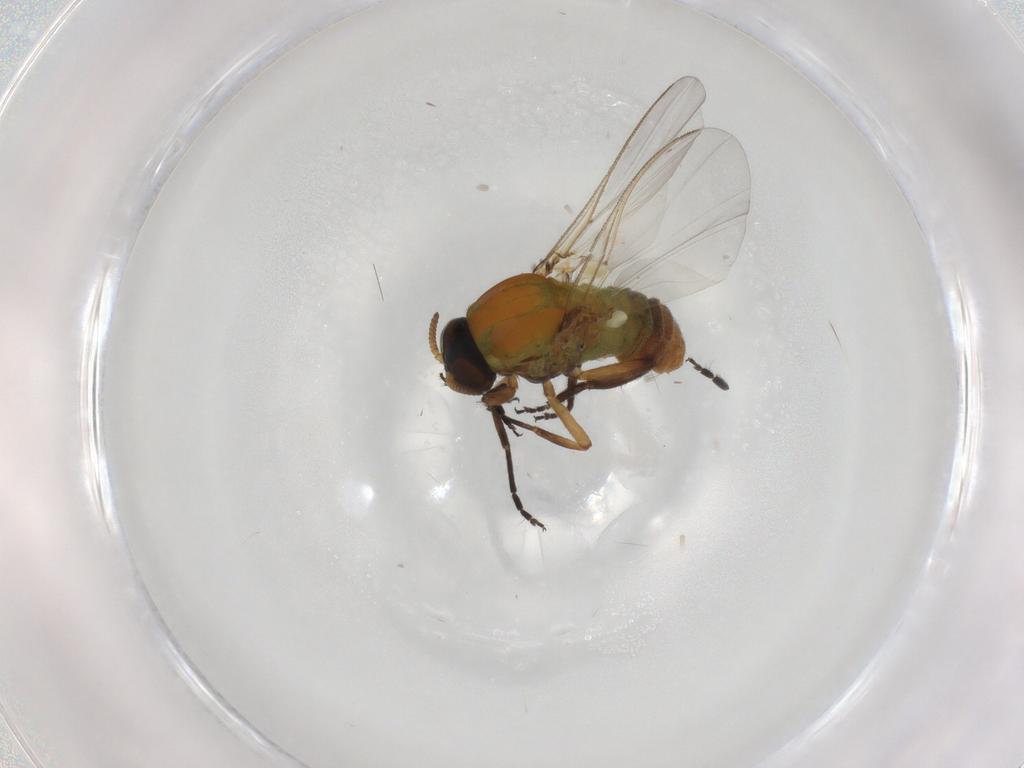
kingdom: Animalia
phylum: Arthropoda
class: Insecta
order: Diptera
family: Simuliidae
